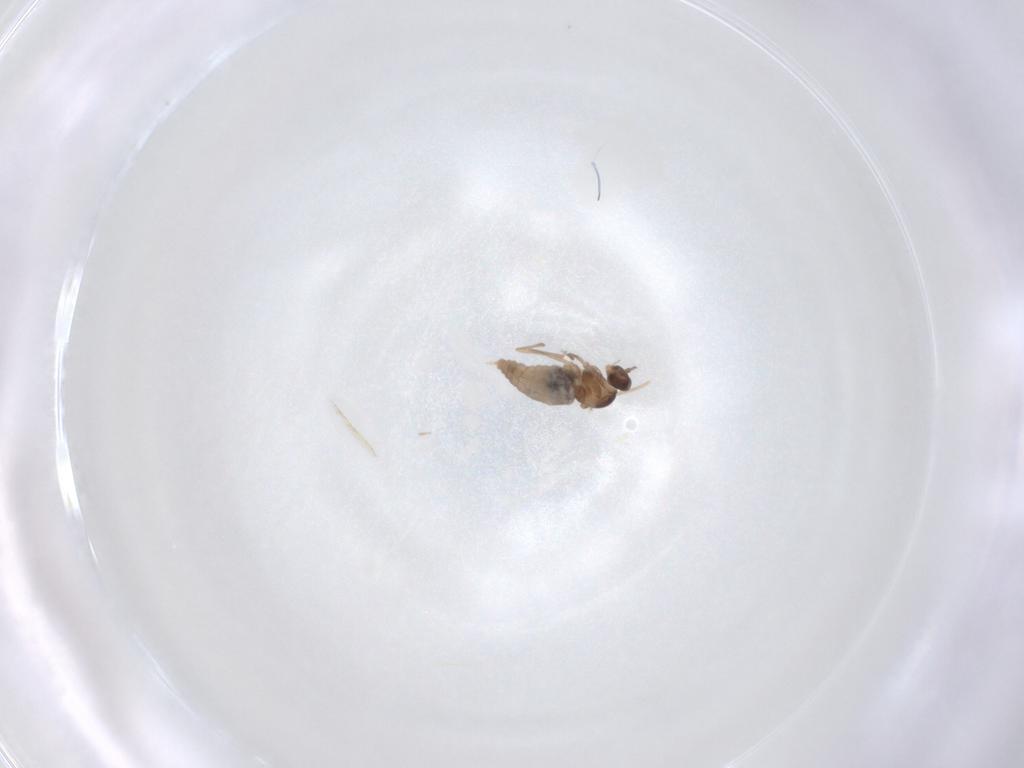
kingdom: Animalia
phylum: Arthropoda
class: Insecta
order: Diptera
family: Cecidomyiidae
